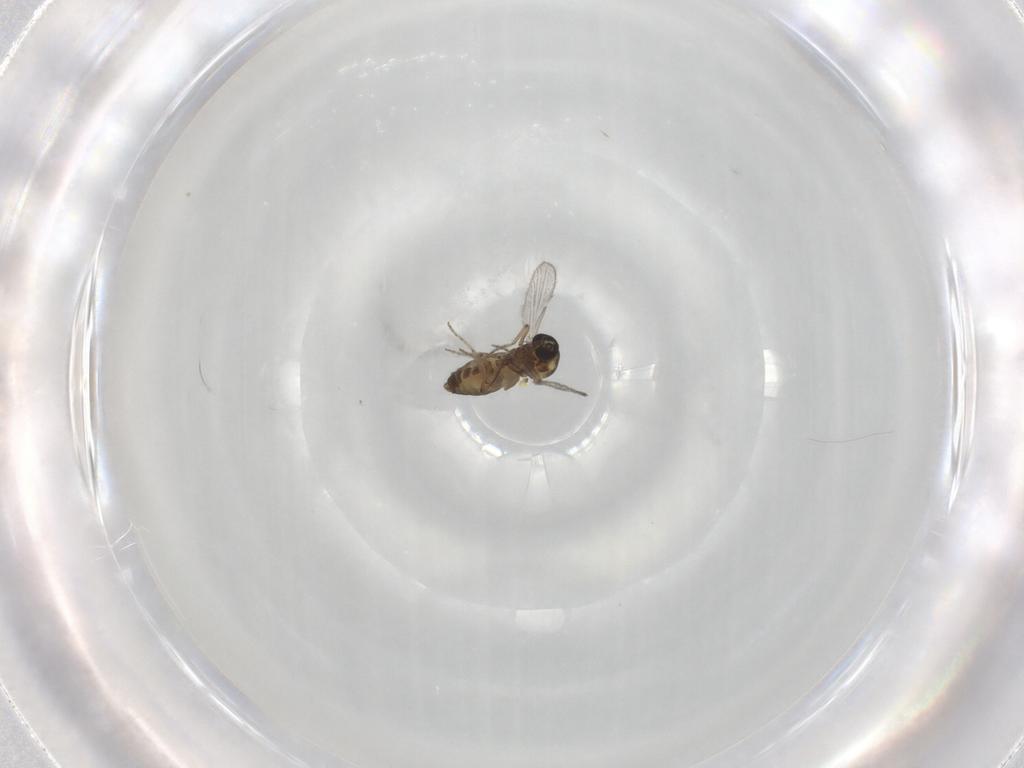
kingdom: Animalia
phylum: Arthropoda
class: Insecta
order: Diptera
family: Ceratopogonidae
